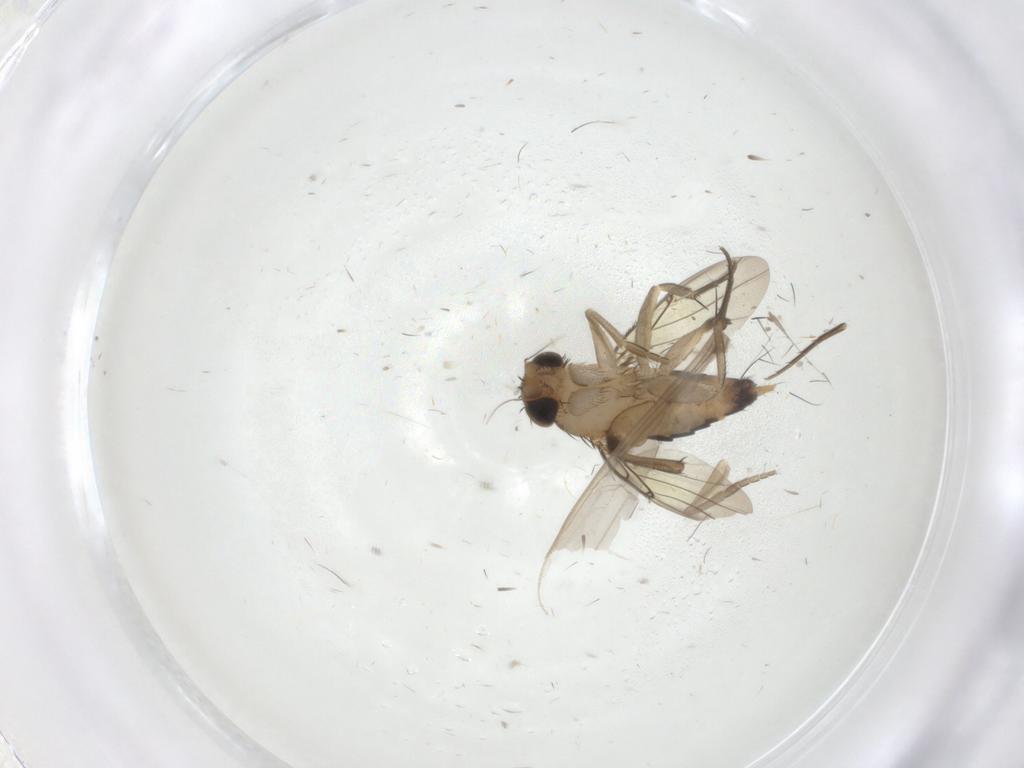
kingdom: Animalia
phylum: Arthropoda
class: Insecta
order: Diptera
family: Phoridae
